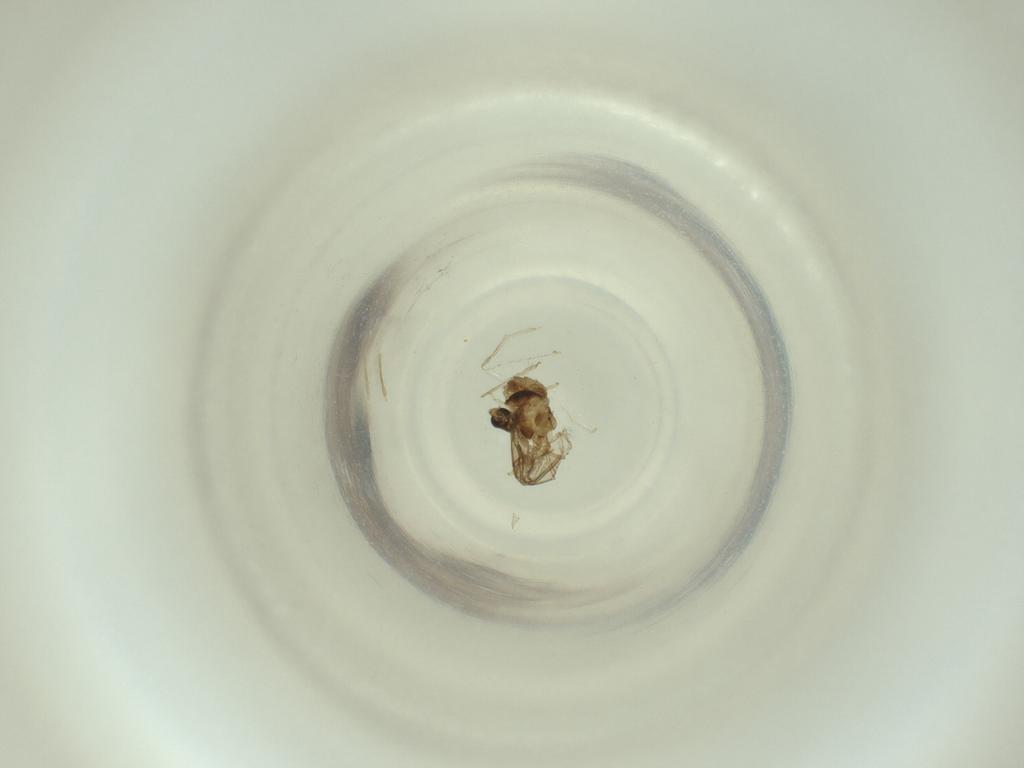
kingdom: Animalia
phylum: Arthropoda
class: Insecta
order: Diptera
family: Cecidomyiidae
